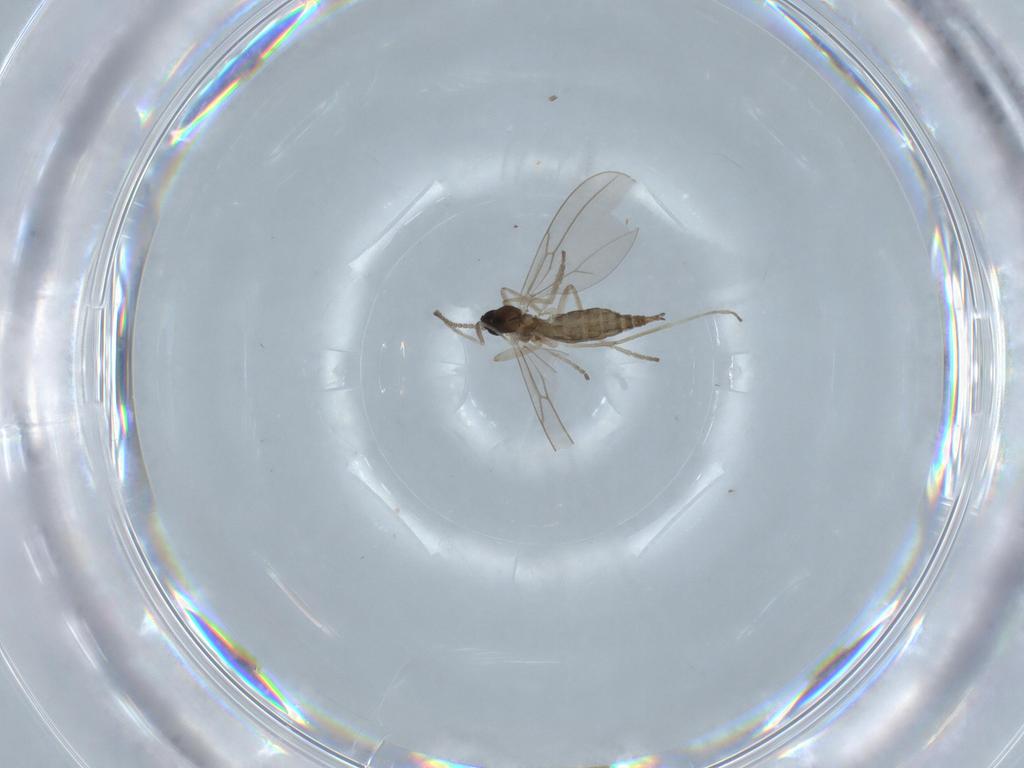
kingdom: Animalia
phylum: Arthropoda
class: Insecta
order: Diptera
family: Cecidomyiidae
